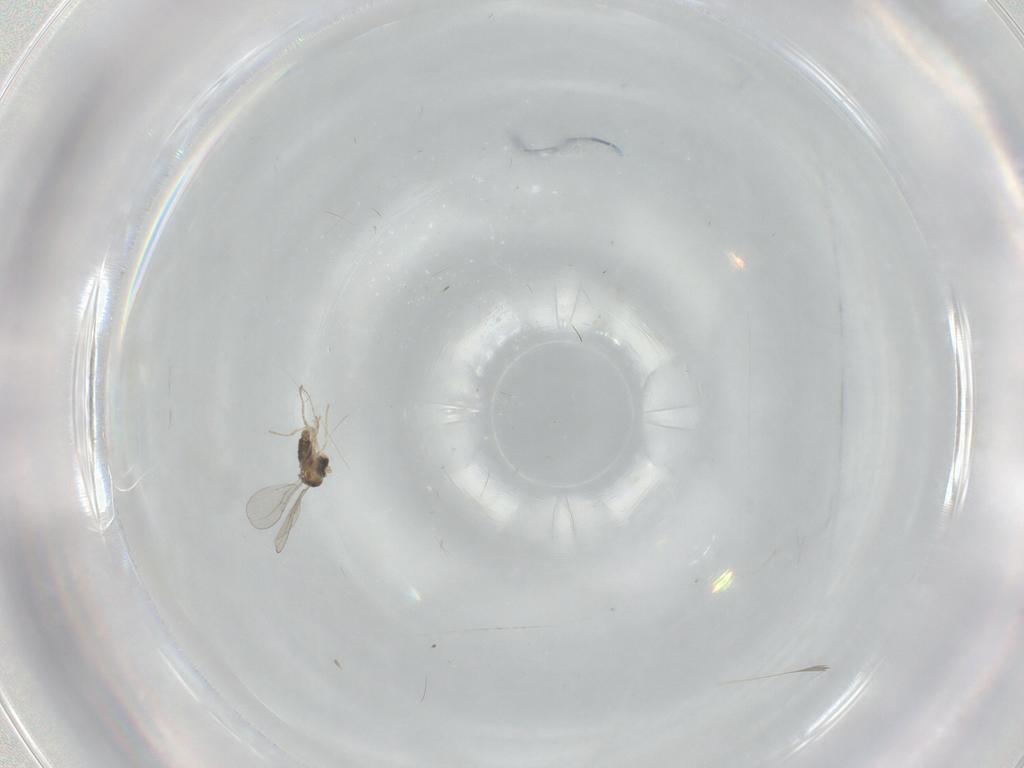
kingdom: Animalia
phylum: Arthropoda
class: Insecta
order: Diptera
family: Cecidomyiidae
